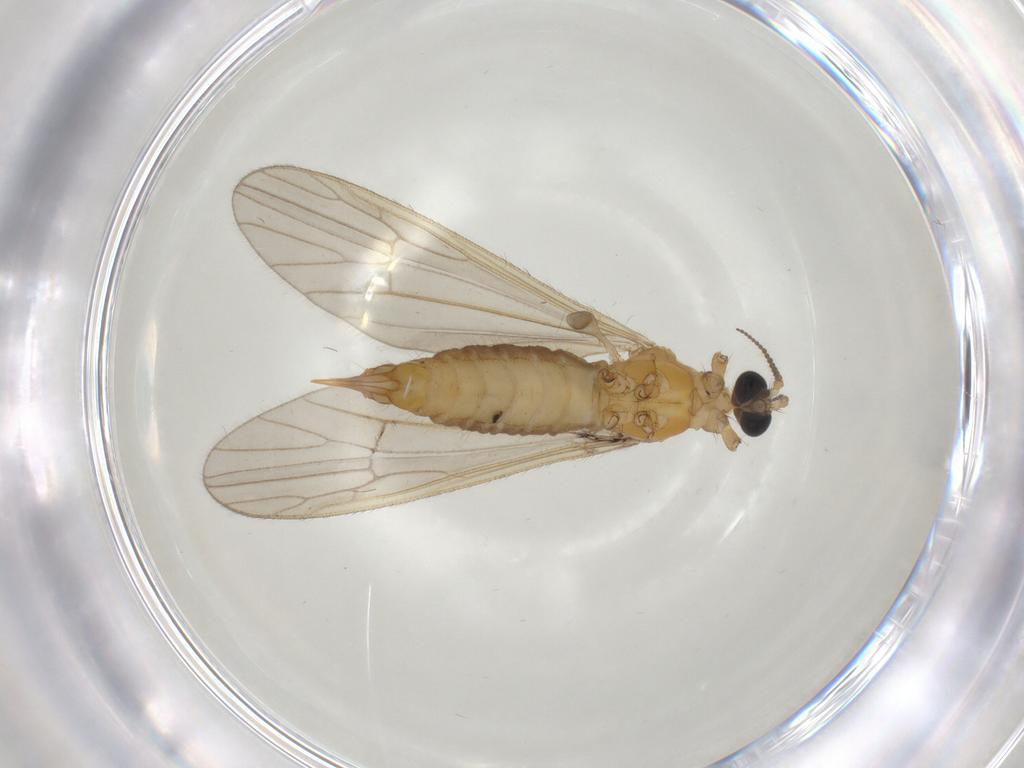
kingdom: Animalia
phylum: Arthropoda
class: Insecta
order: Diptera
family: Limoniidae
